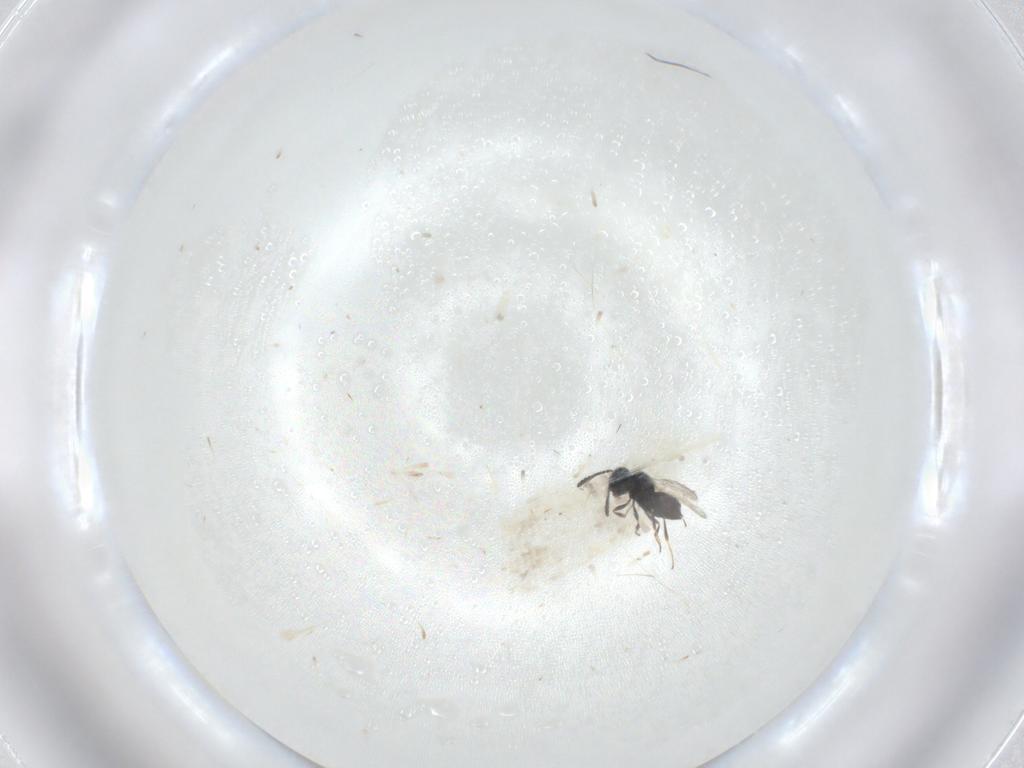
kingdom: Animalia
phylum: Arthropoda
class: Insecta
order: Hymenoptera
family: Scelionidae
